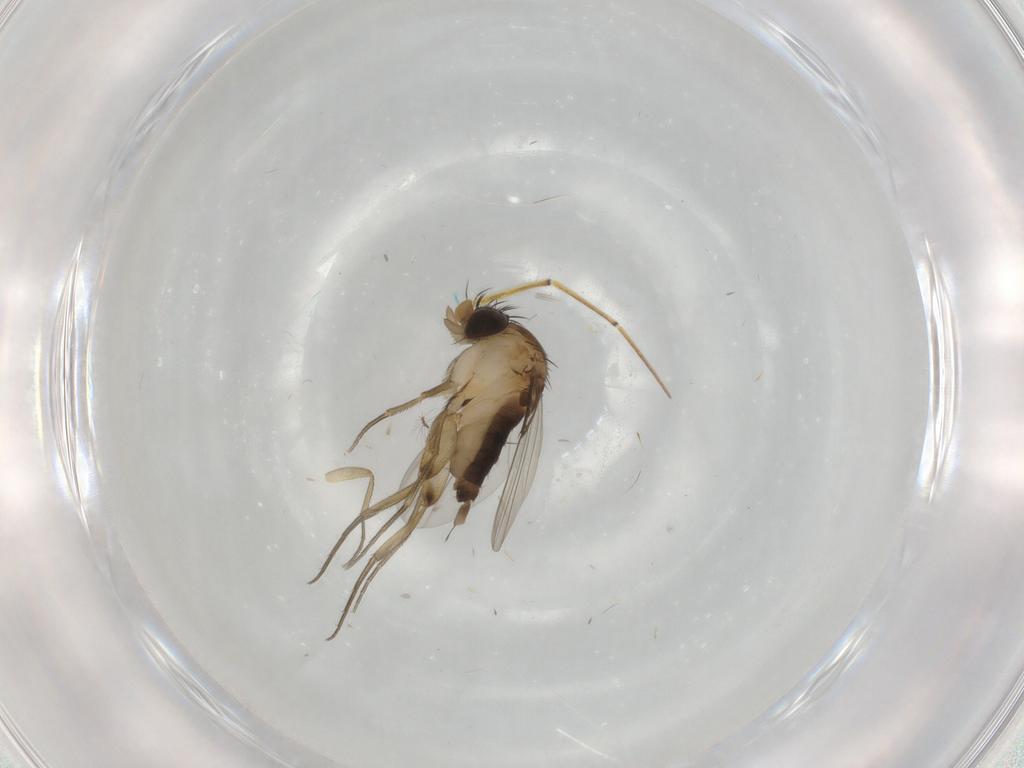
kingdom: Animalia
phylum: Arthropoda
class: Insecta
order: Diptera
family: Phoridae
